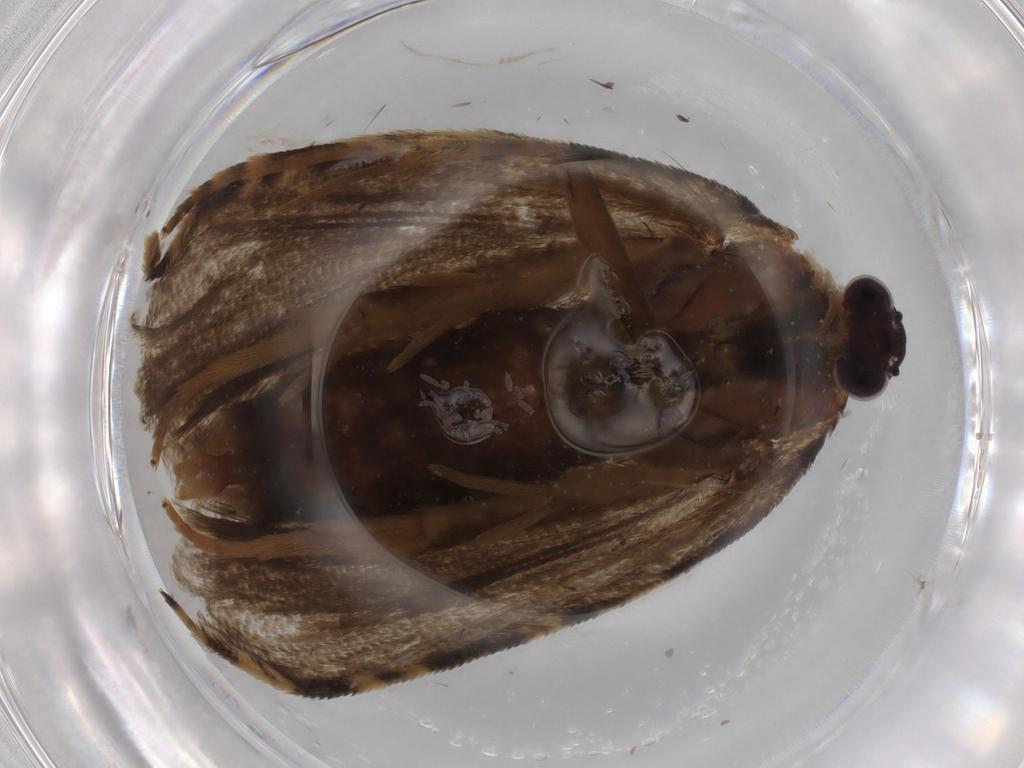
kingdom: Animalia
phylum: Arthropoda
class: Insecta
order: Lepidoptera
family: Tortricidae
